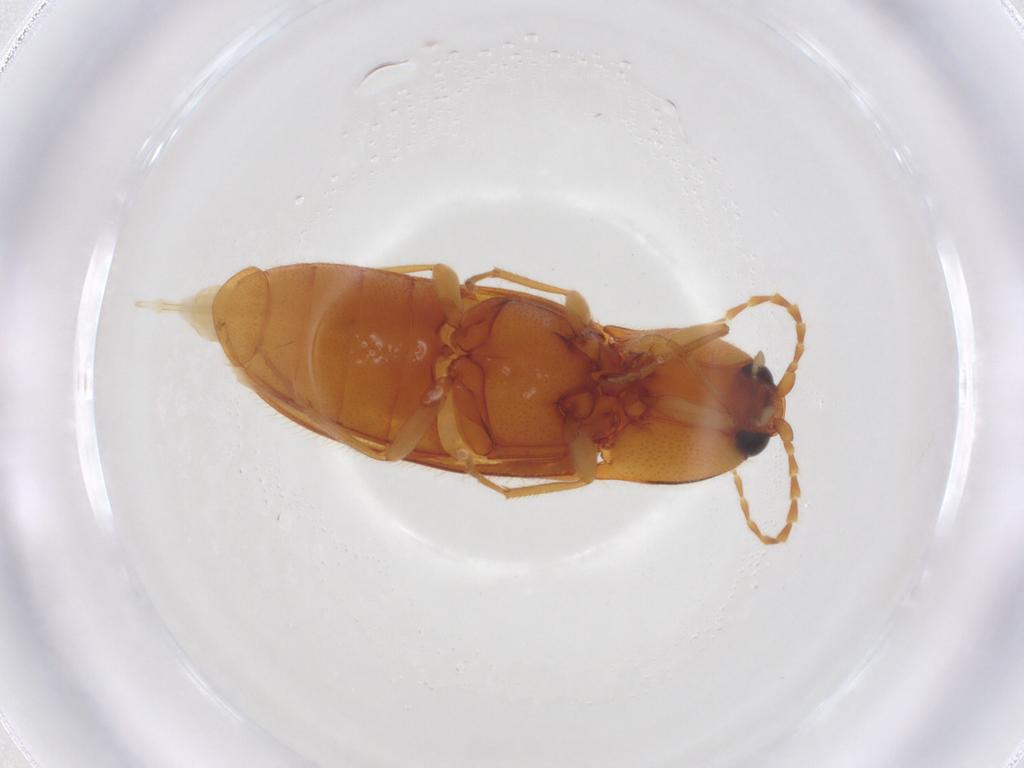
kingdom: Animalia
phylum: Arthropoda
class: Insecta
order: Coleoptera
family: Elateridae
